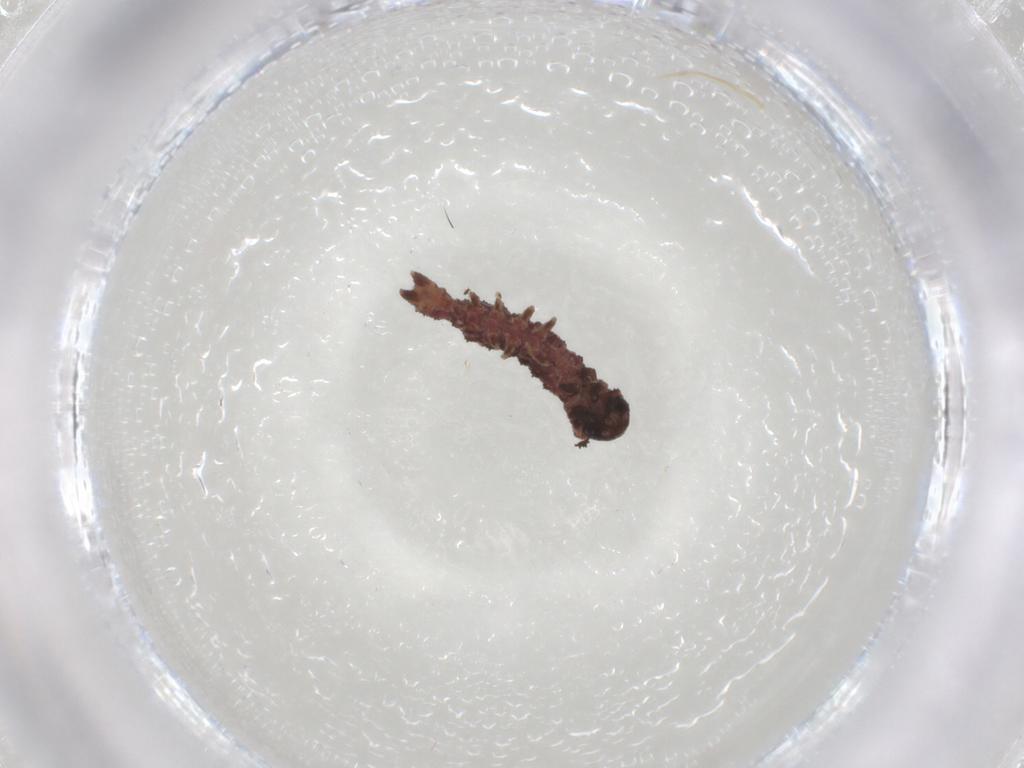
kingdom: Animalia
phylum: Arthropoda
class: Insecta
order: Lepidoptera
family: Erebidae
